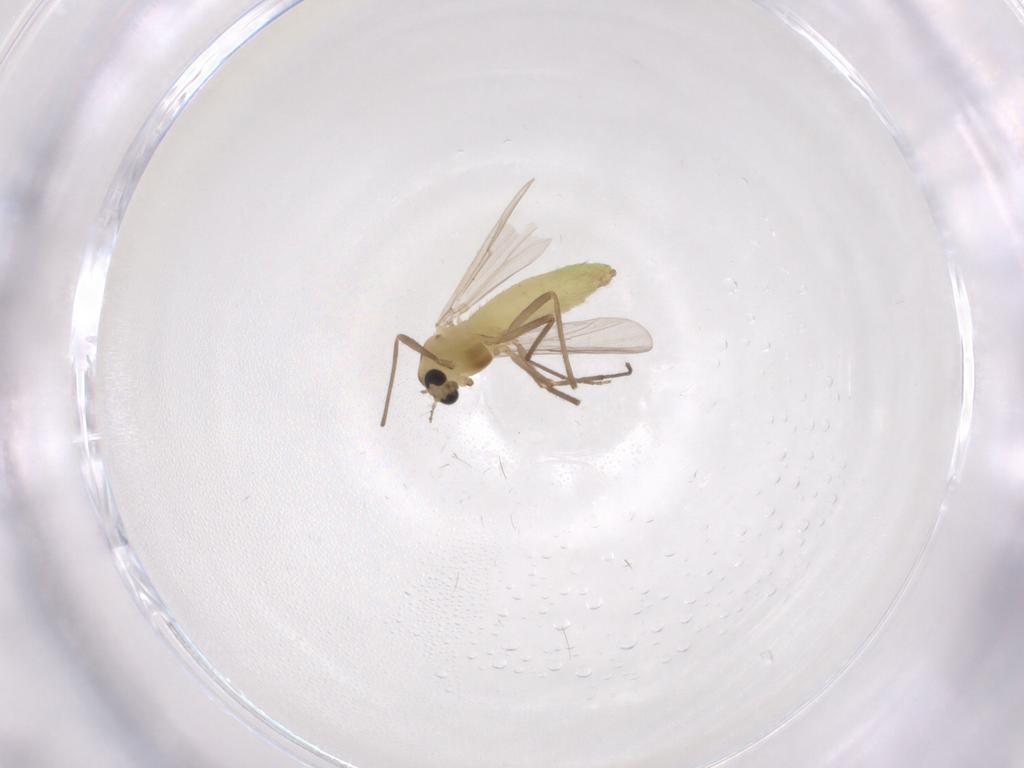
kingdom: Animalia
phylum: Arthropoda
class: Insecta
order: Diptera
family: Chironomidae
